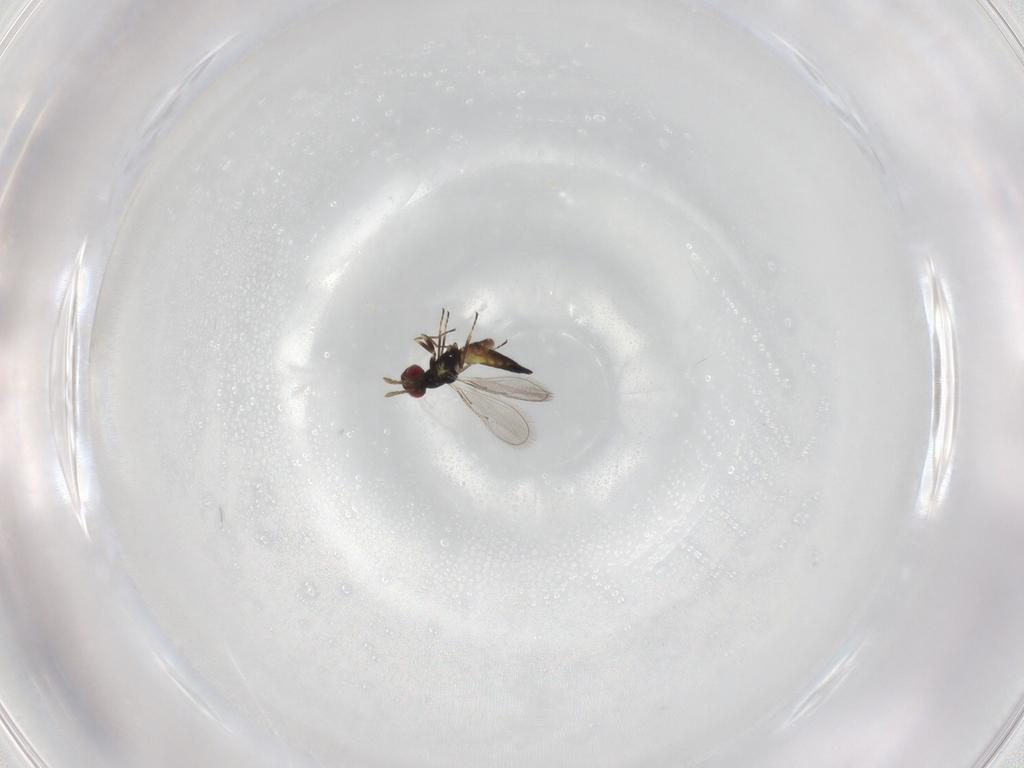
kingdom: Animalia
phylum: Arthropoda
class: Insecta
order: Hymenoptera
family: Eulophidae
